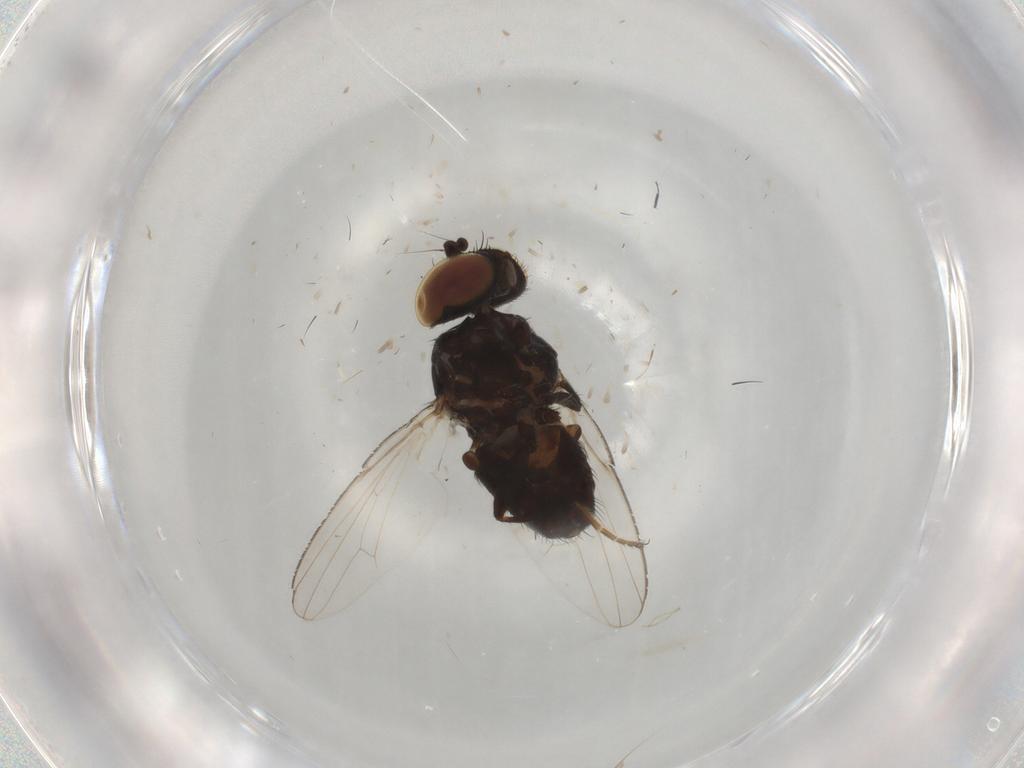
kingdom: Animalia
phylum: Arthropoda
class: Insecta
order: Diptera
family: Milichiidae
